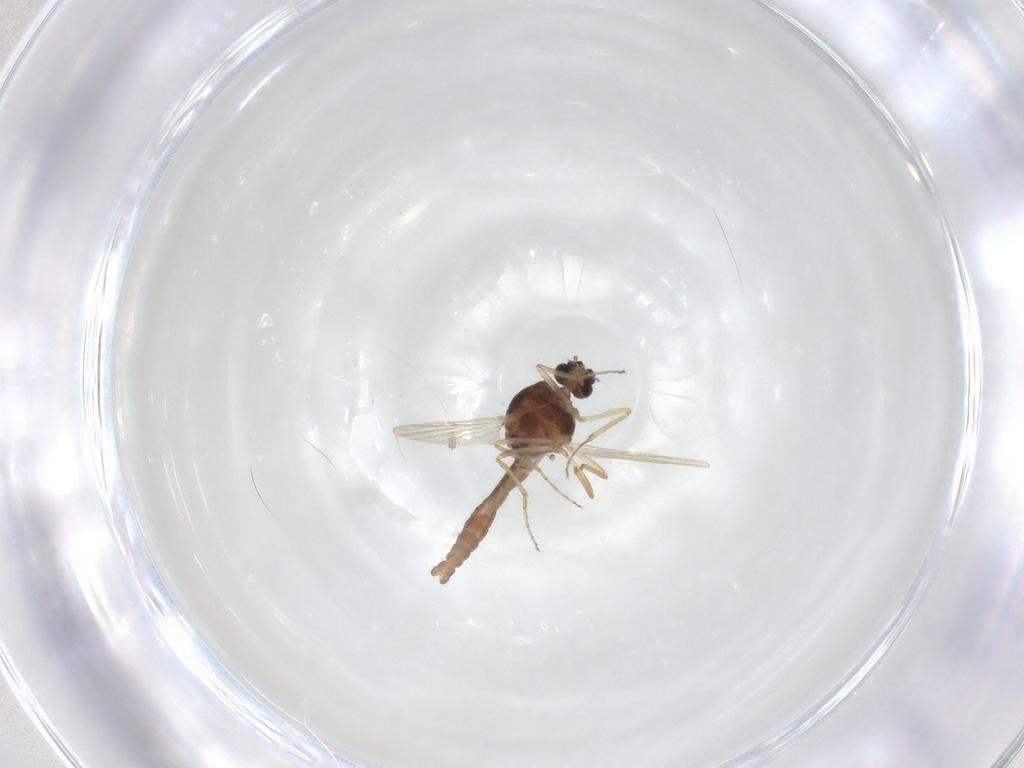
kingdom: Animalia
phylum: Arthropoda
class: Insecta
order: Diptera
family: Ceratopogonidae
